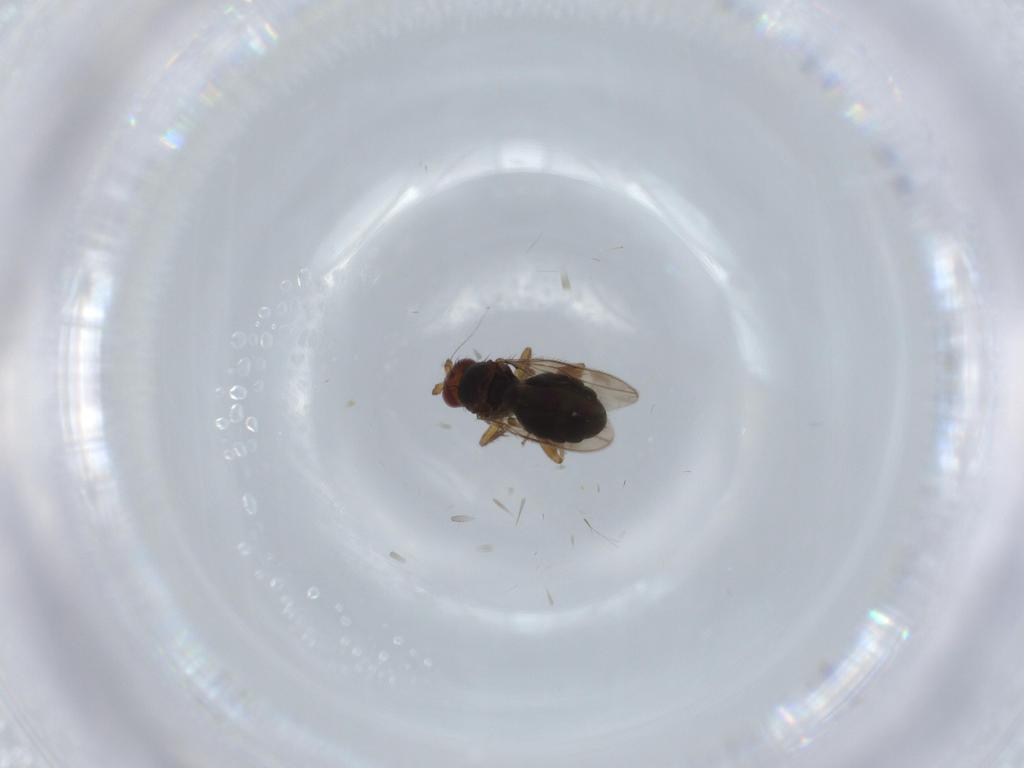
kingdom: Animalia
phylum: Arthropoda
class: Insecta
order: Diptera
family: Sphaeroceridae
